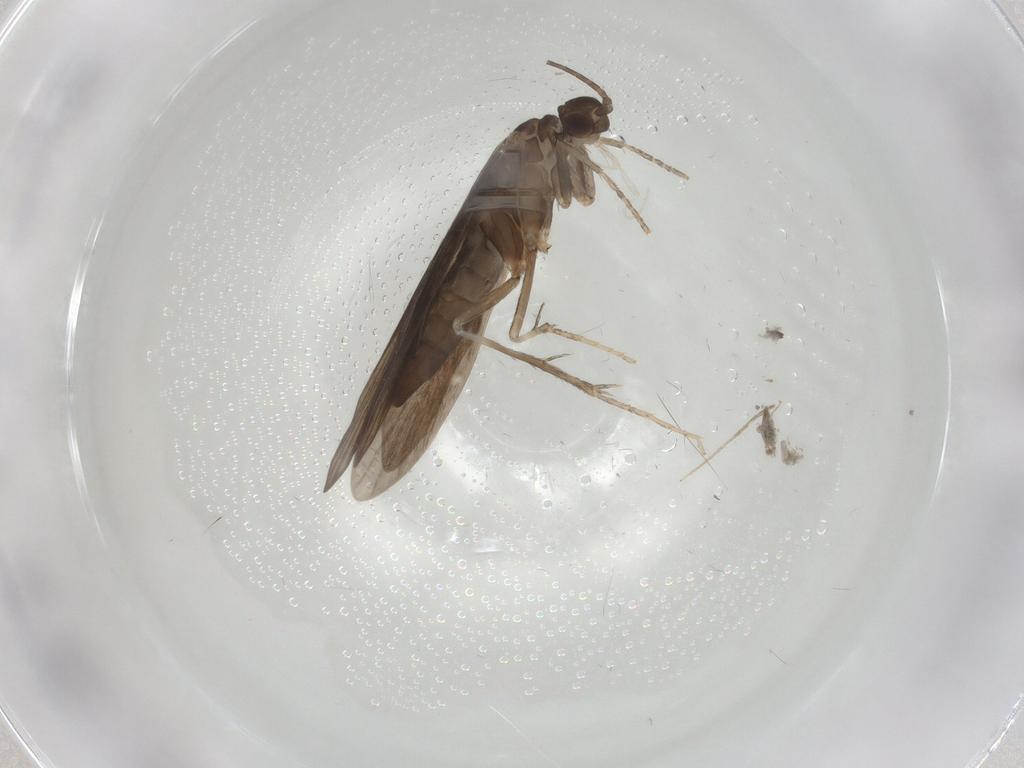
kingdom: Animalia
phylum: Arthropoda
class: Insecta
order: Trichoptera
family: Xiphocentronidae
